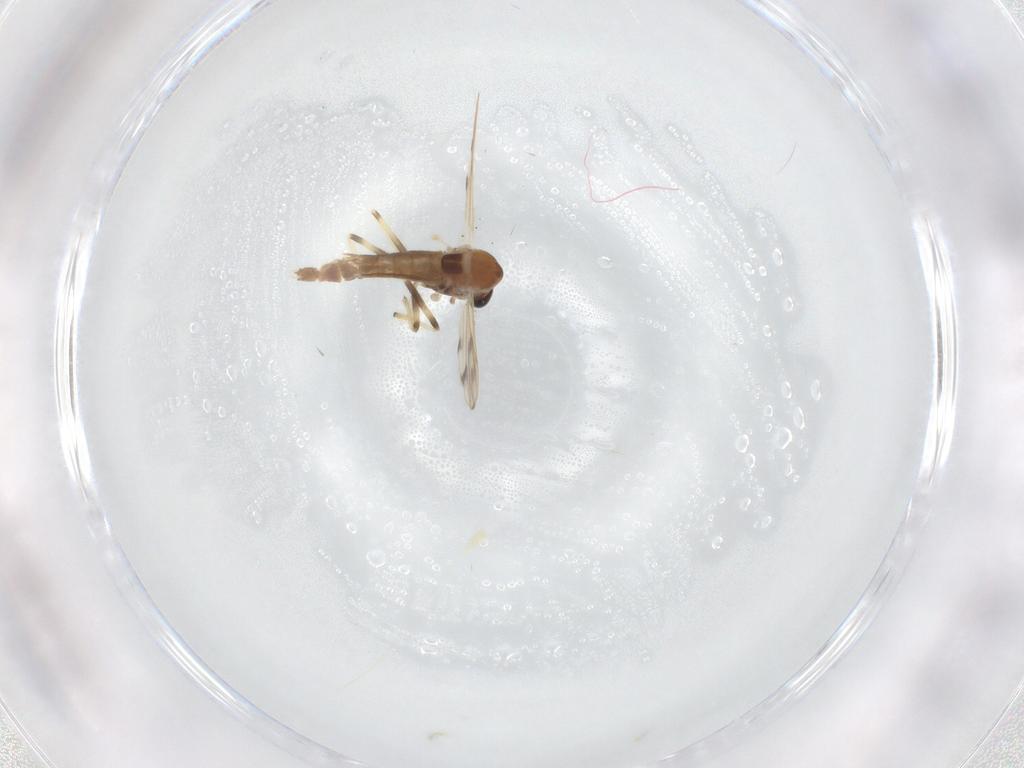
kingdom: Animalia
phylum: Arthropoda
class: Insecta
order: Diptera
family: Chironomidae
